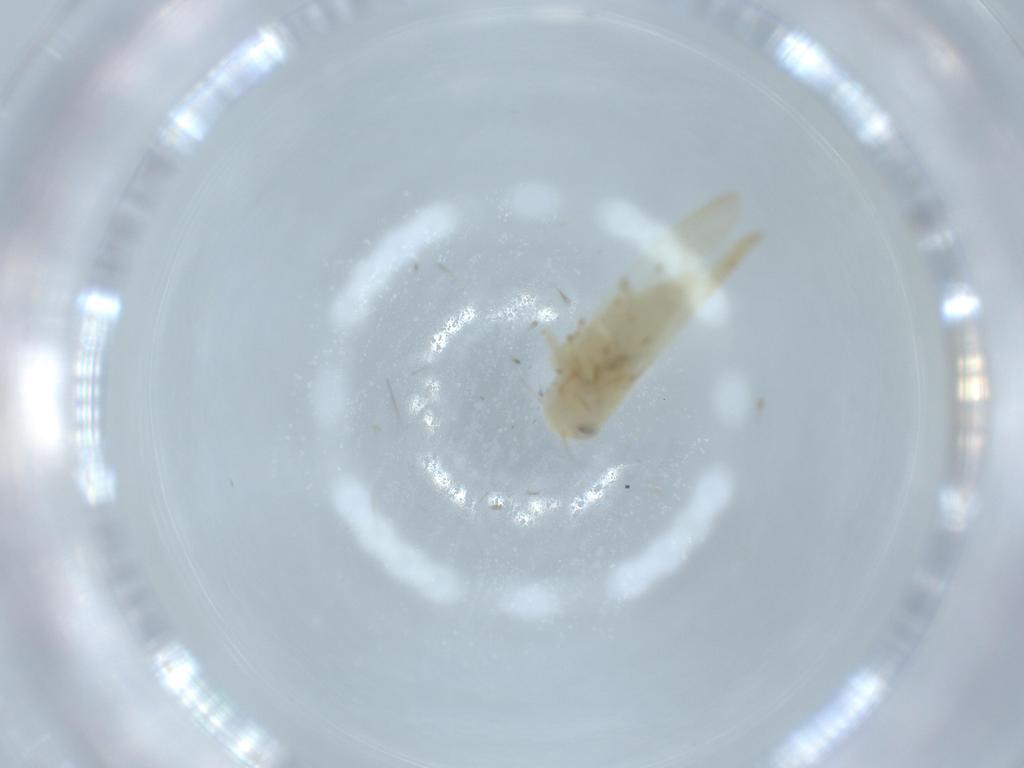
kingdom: Animalia
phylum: Arthropoda
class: Insecta
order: Hemiptera
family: Cicadellidae
